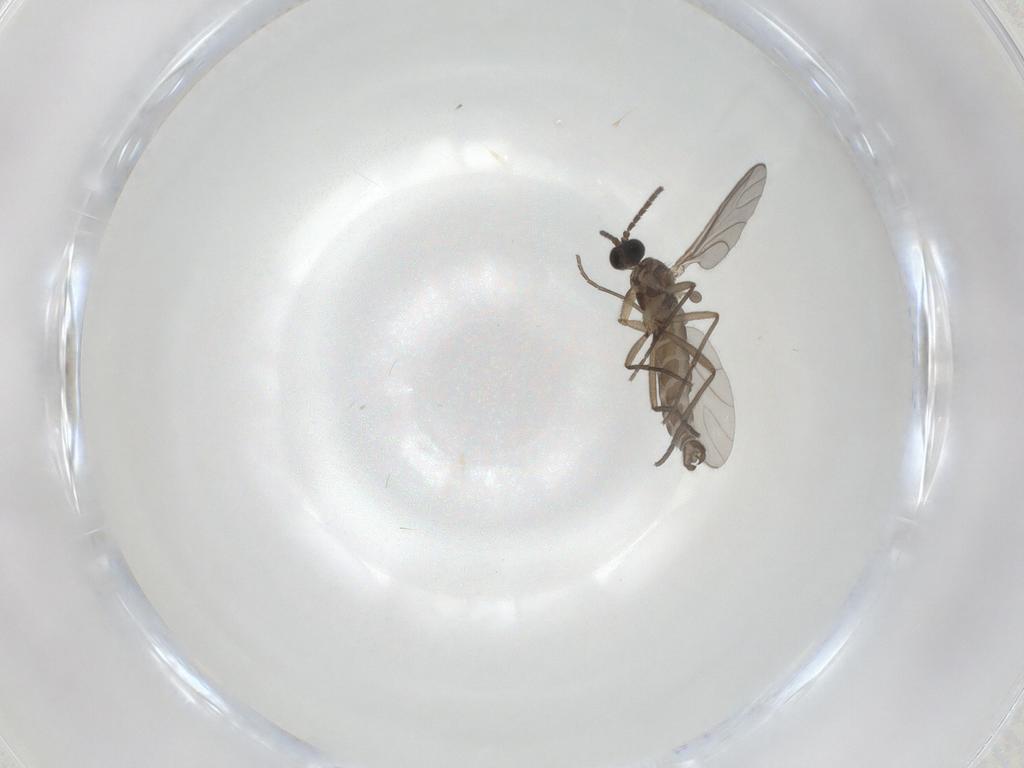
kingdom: Animalia
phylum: Arthropoda
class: Insecta
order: Diptera
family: Sciaridae
